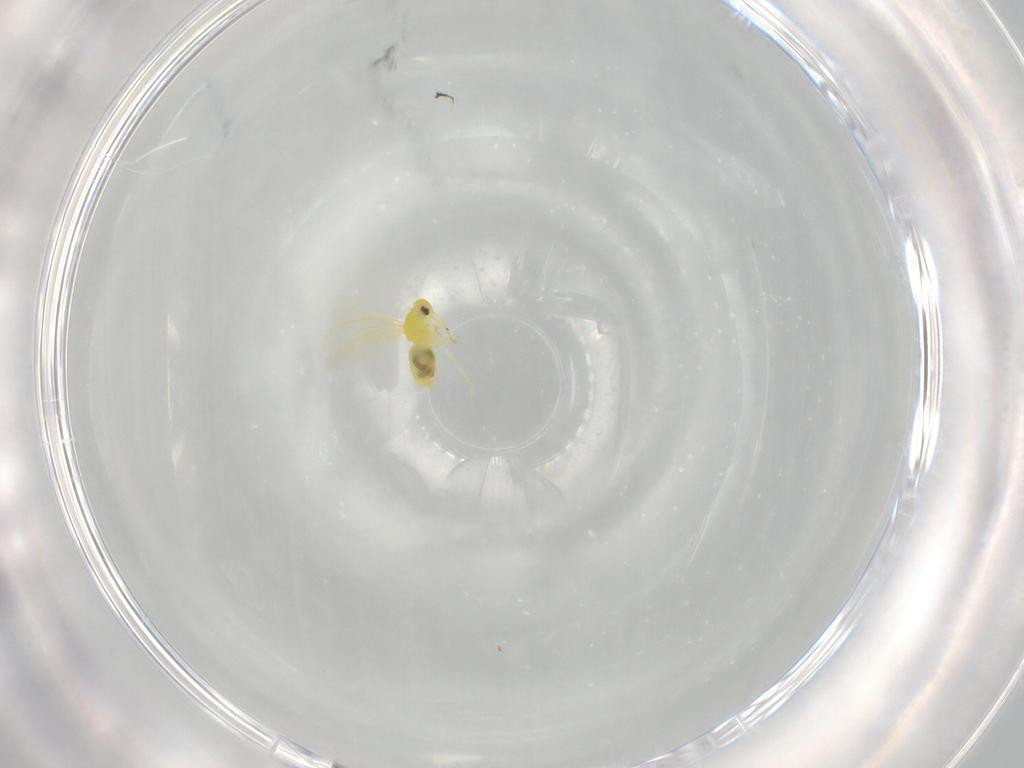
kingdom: Animalia
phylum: Arthropoda
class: Insecta
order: Hemiptera
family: Aleyrodidae
